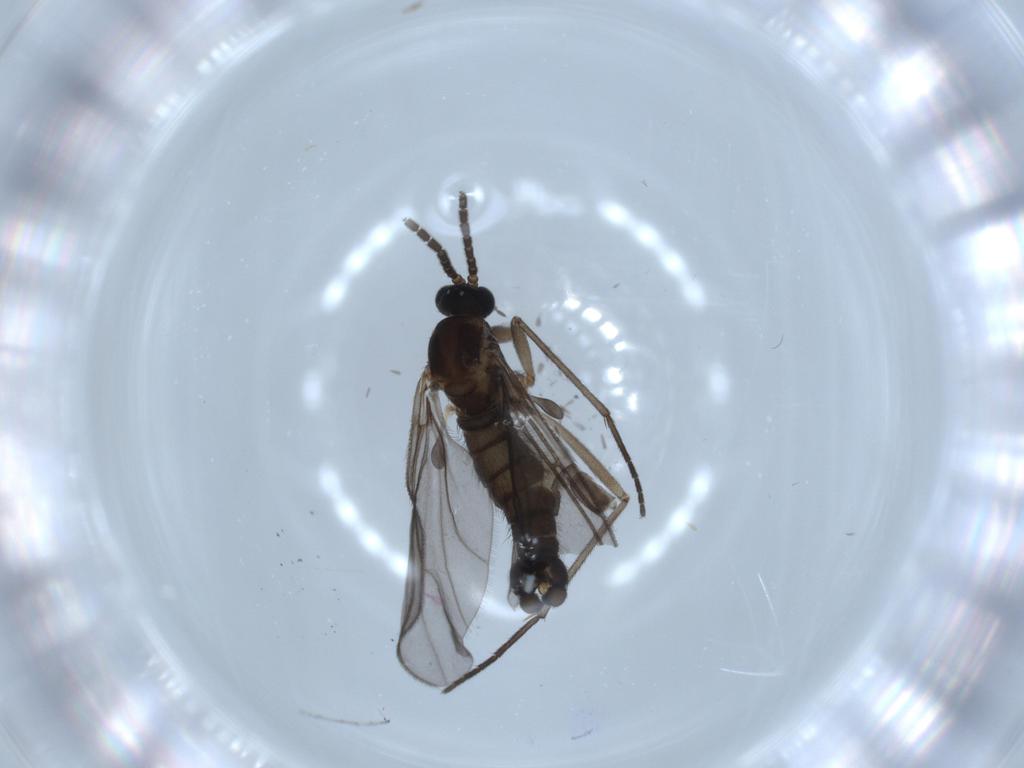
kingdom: Animalia
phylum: Arthropoda
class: Insecta
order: Diptera
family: Sciaridae
